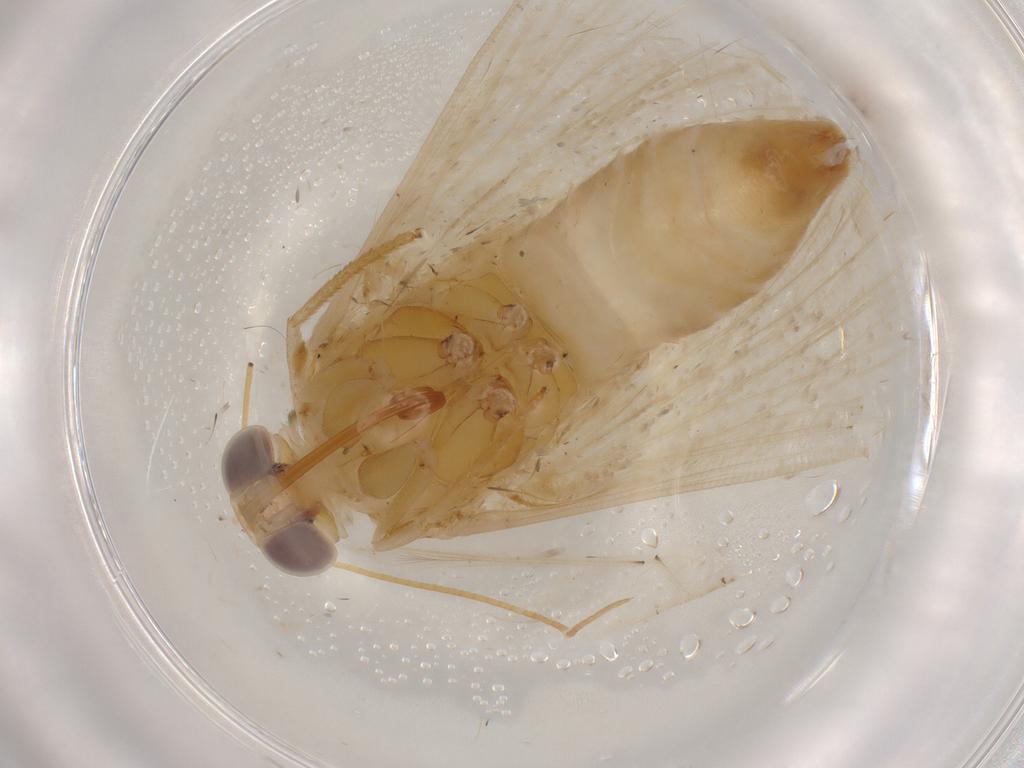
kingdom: Animalia
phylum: Arthropoda
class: Insecta
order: Lepidoptera
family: Noctuidae
